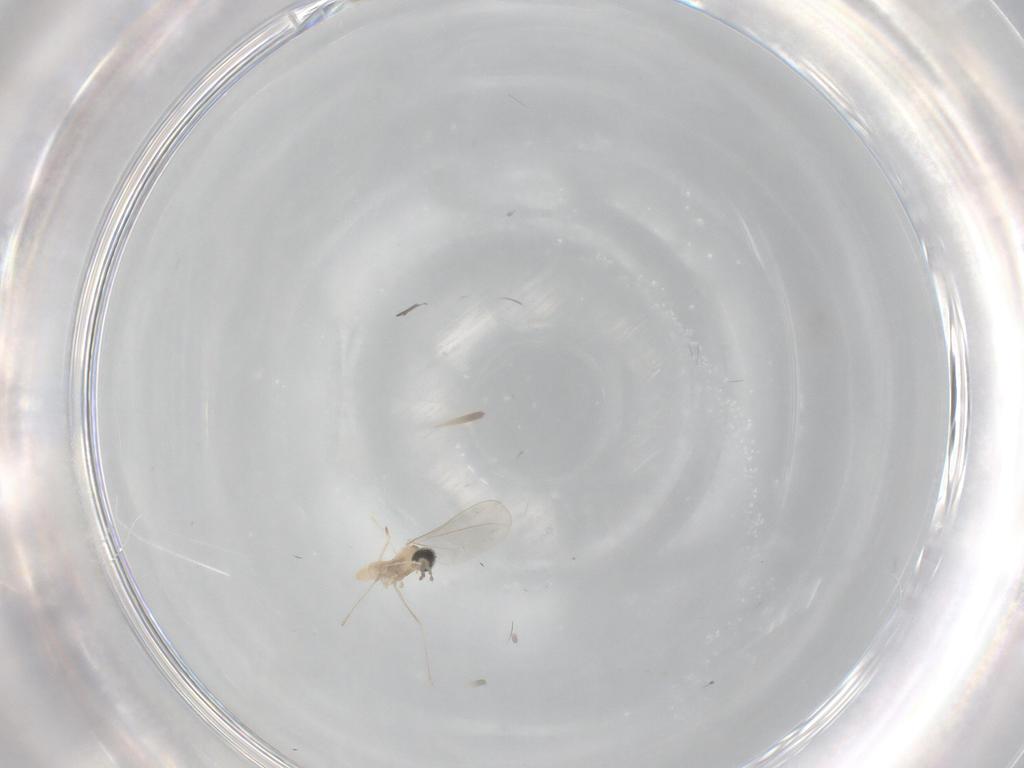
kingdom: Animalia
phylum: Arthropoda
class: Insecta
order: Diptera
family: Cecidomyiidae
